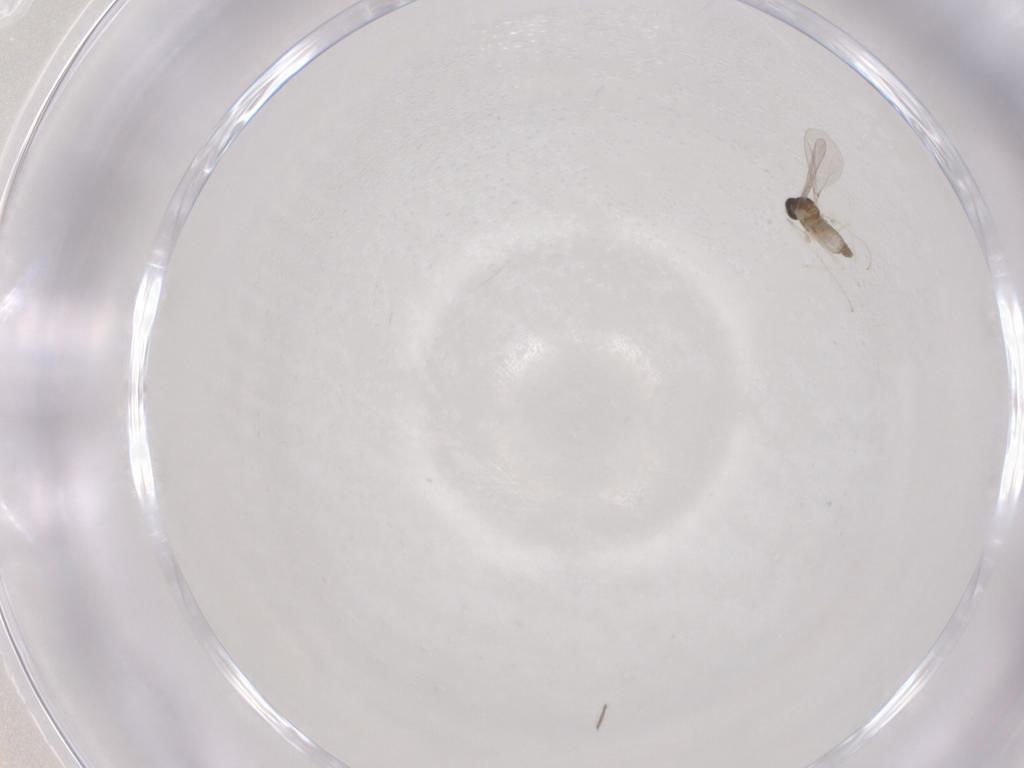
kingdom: Animalia
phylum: Arthropoda
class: Insecta
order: Diptera
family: Cecidomyiidae
